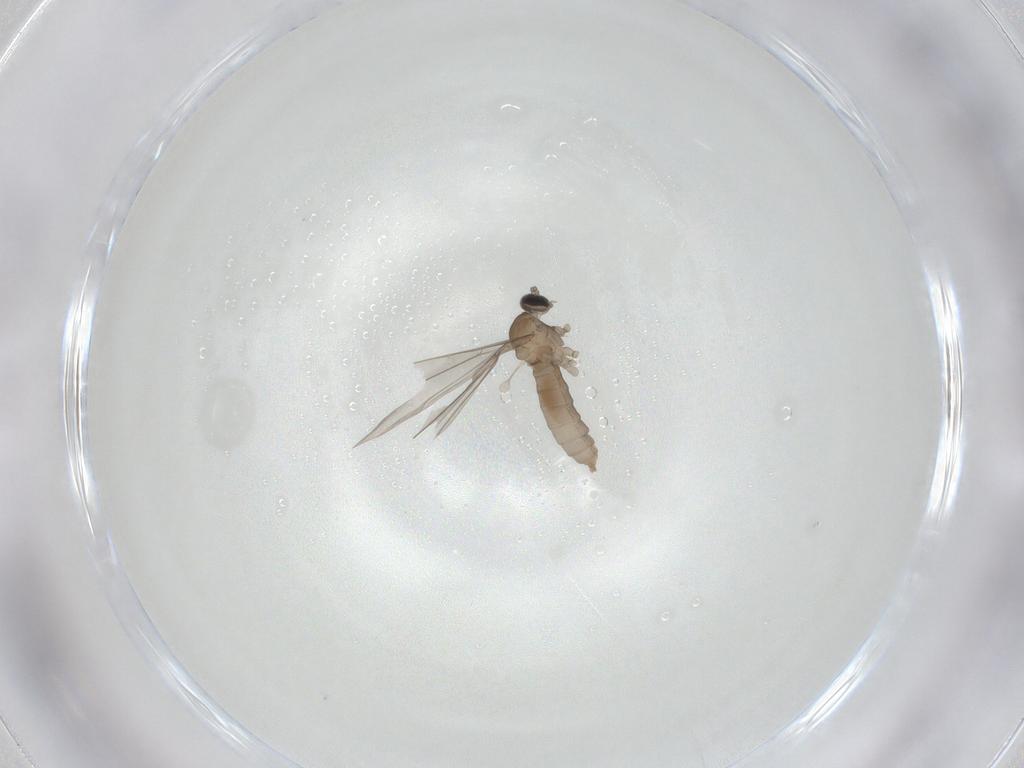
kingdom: Animalia
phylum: Arthropoda
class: Insecta
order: Diptera
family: Cecidomyiidae
